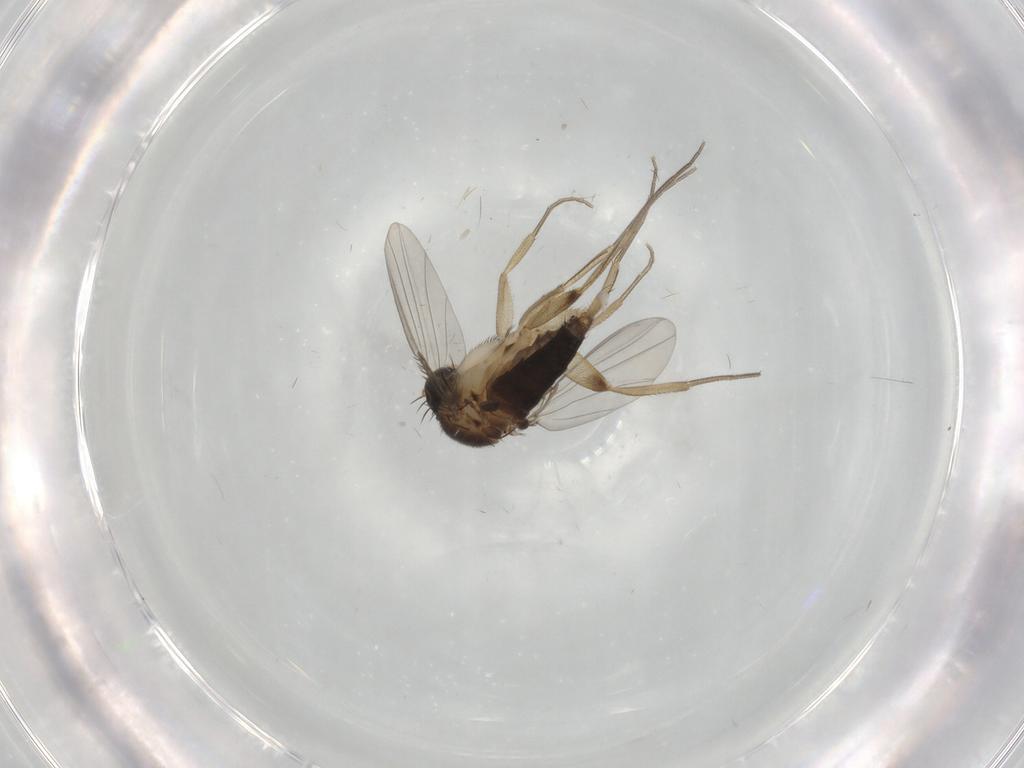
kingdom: Animalia
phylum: Arthropoda
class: Insecta
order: Diptera
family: Phoridae
